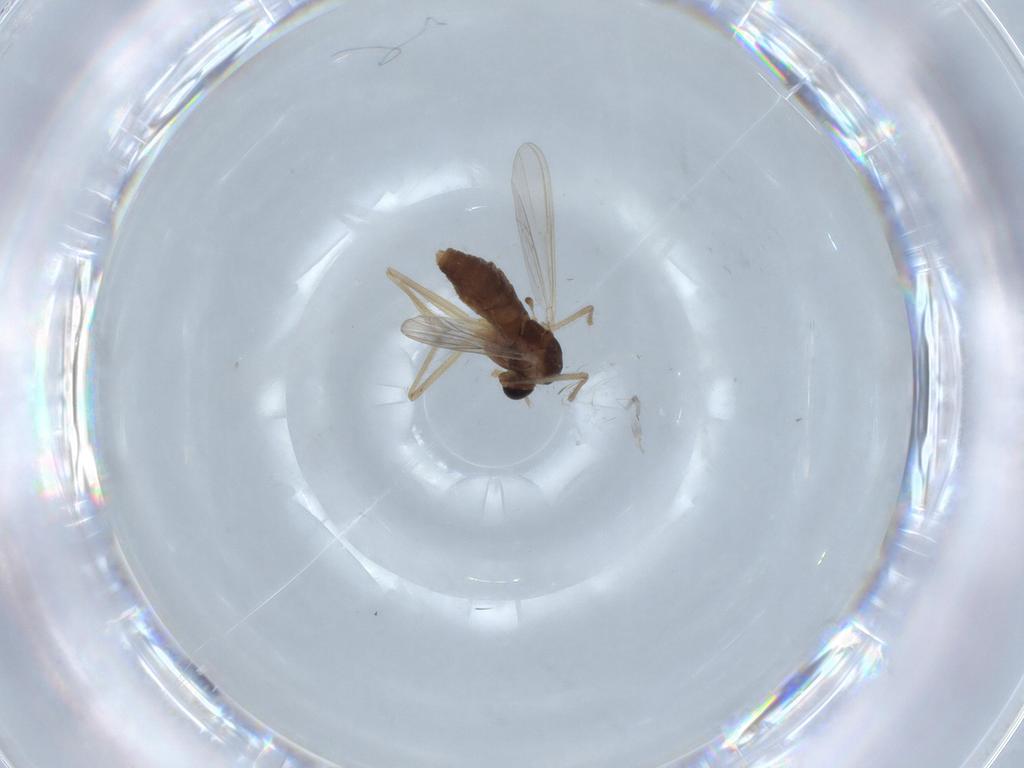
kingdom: Animalia
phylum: Arthropoda
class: Insecta
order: Diptera
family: Chironomidae
